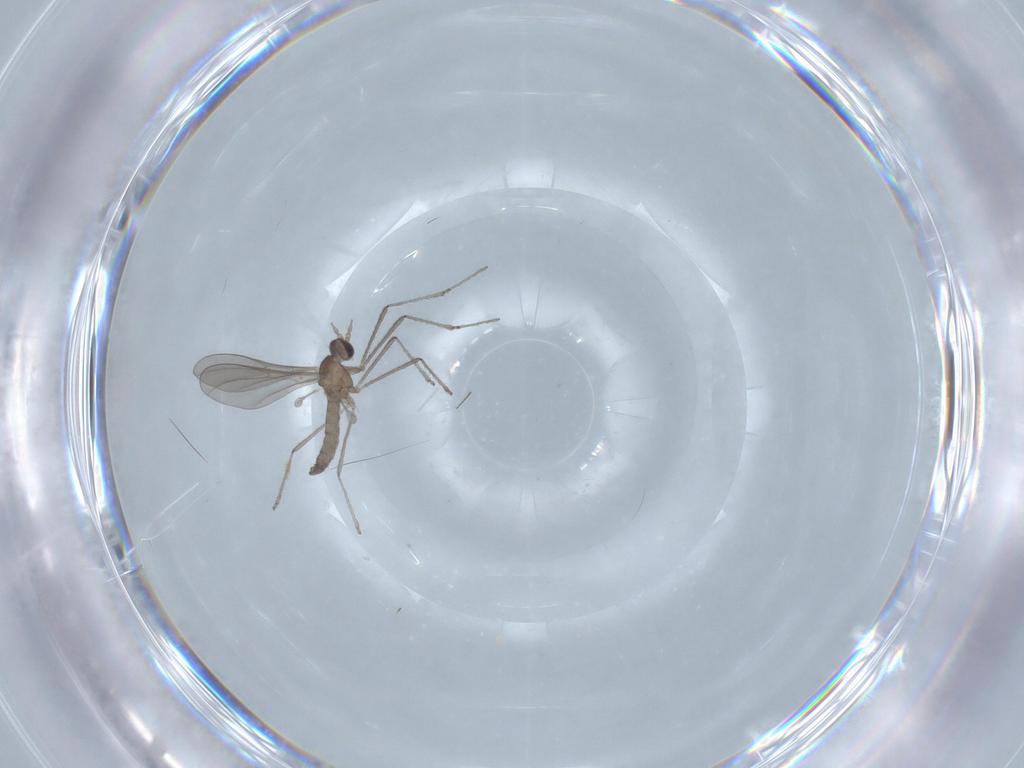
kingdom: Animalia
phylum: Arthropoda
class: Insecta
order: Diptera
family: Cecidomyiidae
